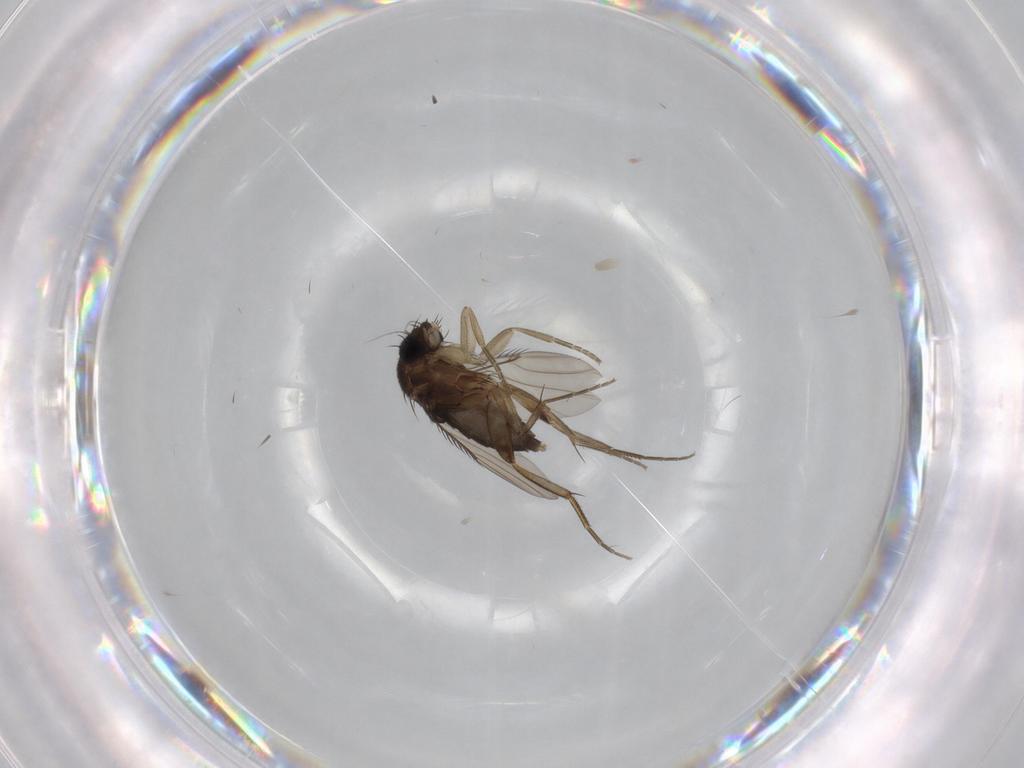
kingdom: Animalia
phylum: Arthropoda
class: Insecta
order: Diptera
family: Phoridae
